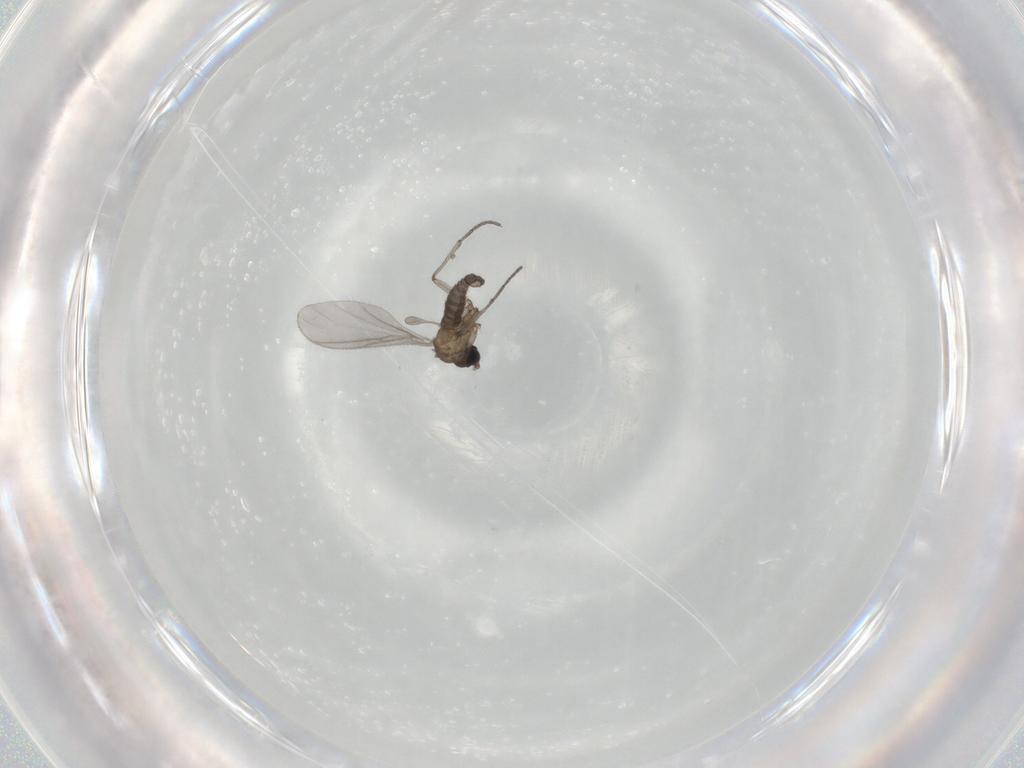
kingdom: Animalia
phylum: Arthropoda
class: Insecta
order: Diptera
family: Sciaridae
